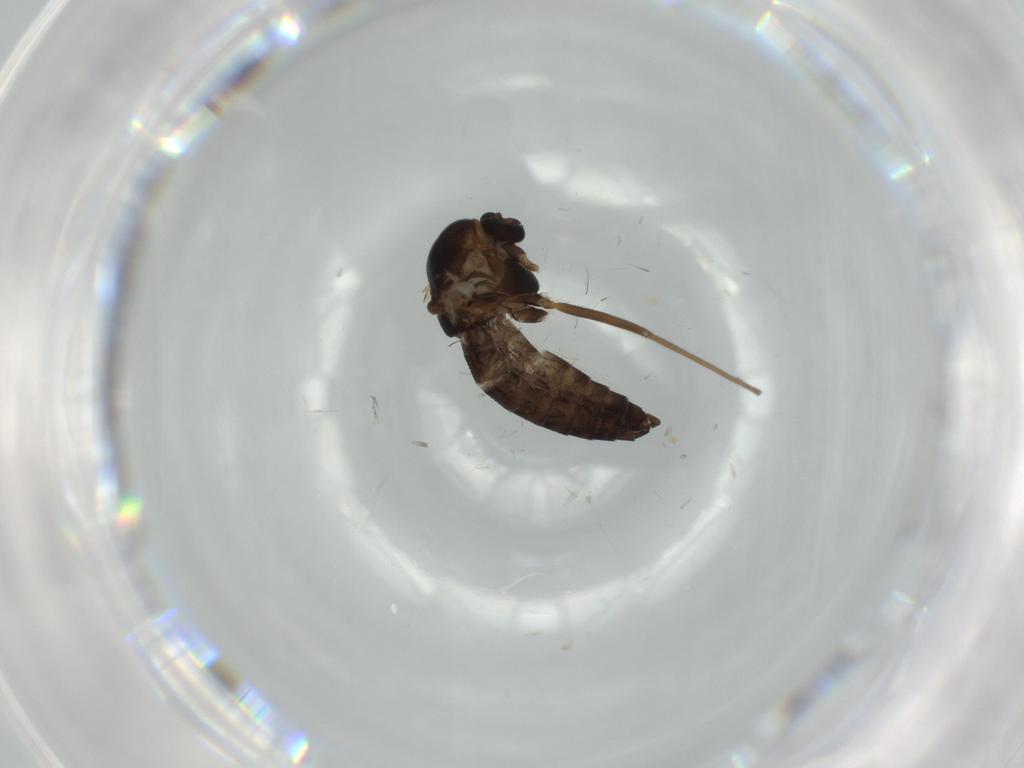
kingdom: Animalia
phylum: Arthropoda
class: Insecta
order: Diptera
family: Chironomidae
